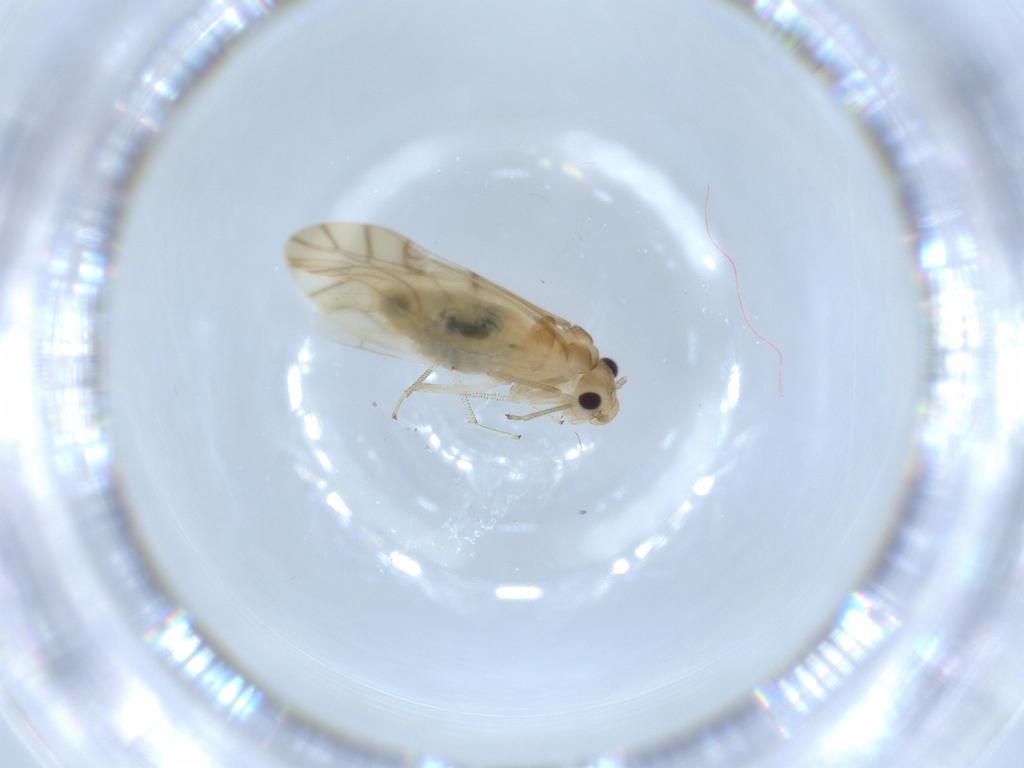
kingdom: Animalia
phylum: Arthropoda
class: Insecta
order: Psocodea
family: Caeciliusidae
